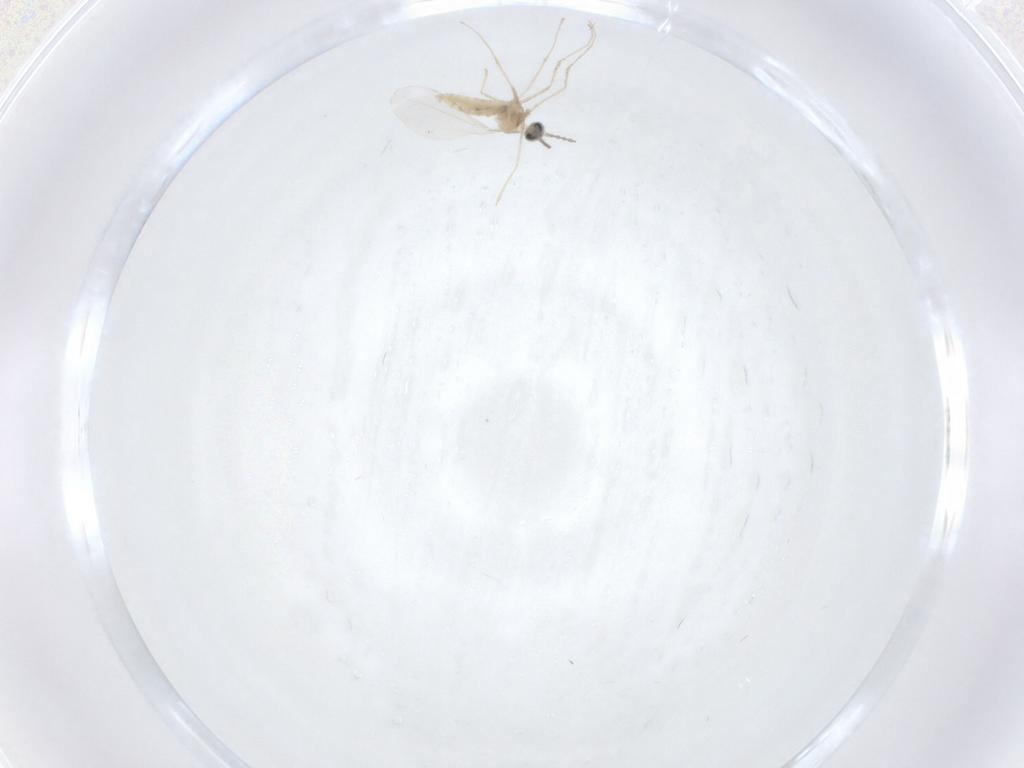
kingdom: Animalia
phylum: Arthropoda
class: Insecta
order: Diptera
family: Cecidomyiidae
